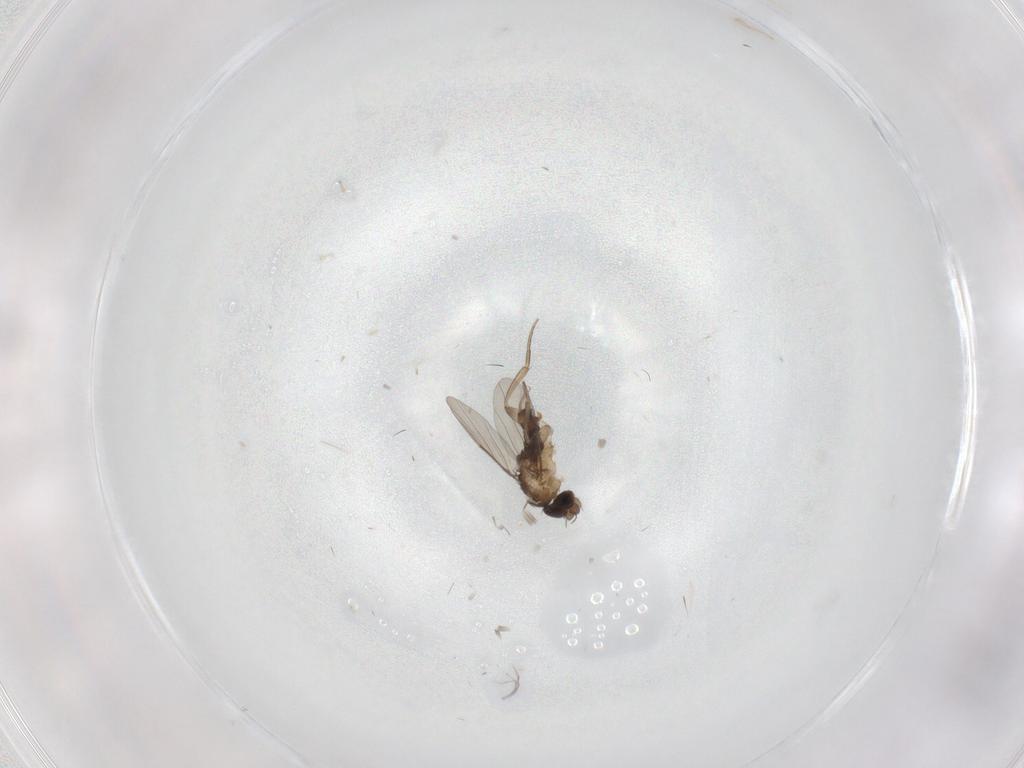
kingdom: Animalia
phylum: Arthropoda
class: Insecta
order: Diptera
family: Phoridae
